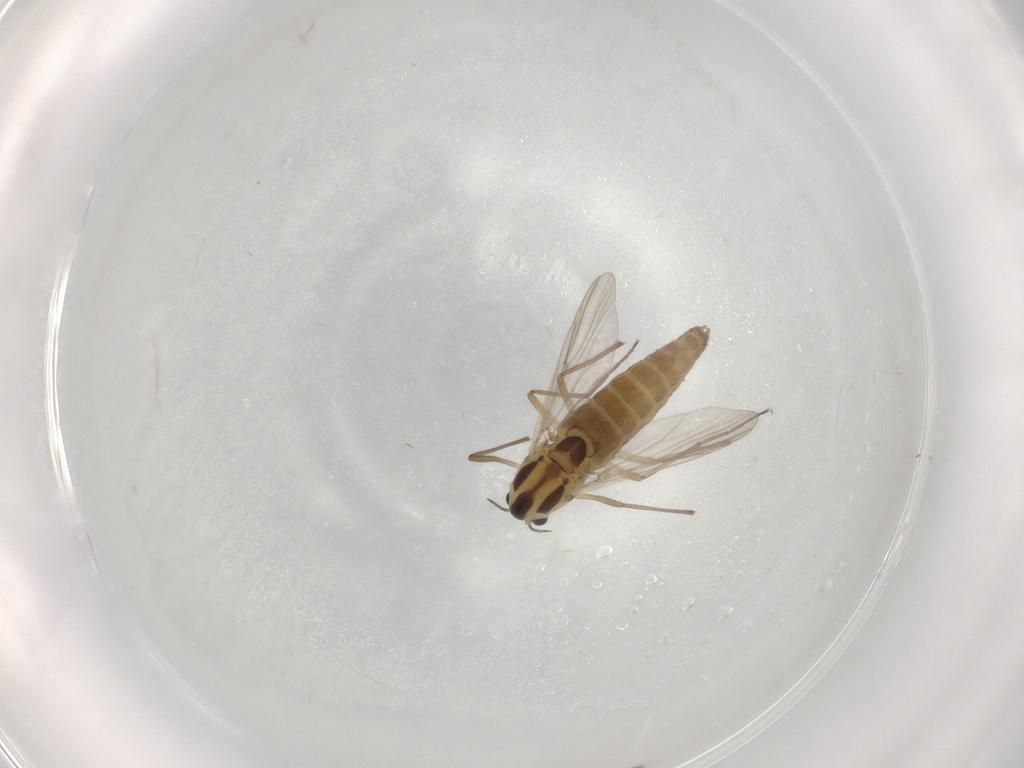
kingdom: Animalia
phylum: Arthropoda
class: Insecta
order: Diptera
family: Chironomidae
